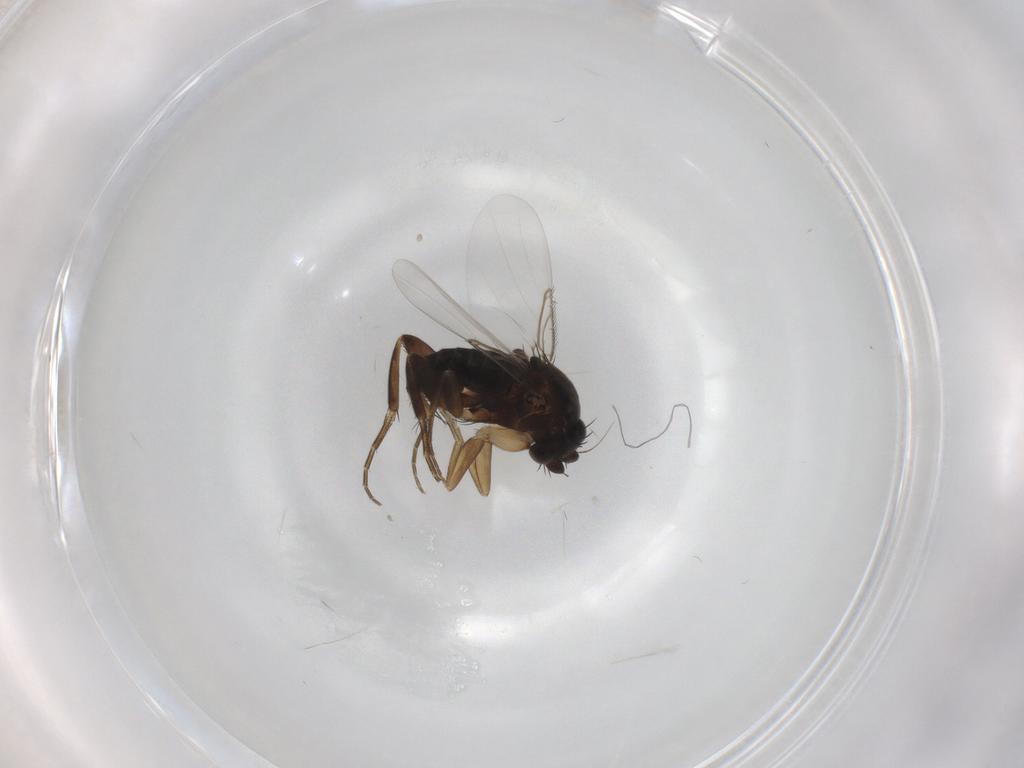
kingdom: Animalia
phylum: Arthropoda
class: Insecta
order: Diptera
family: Phoridae
